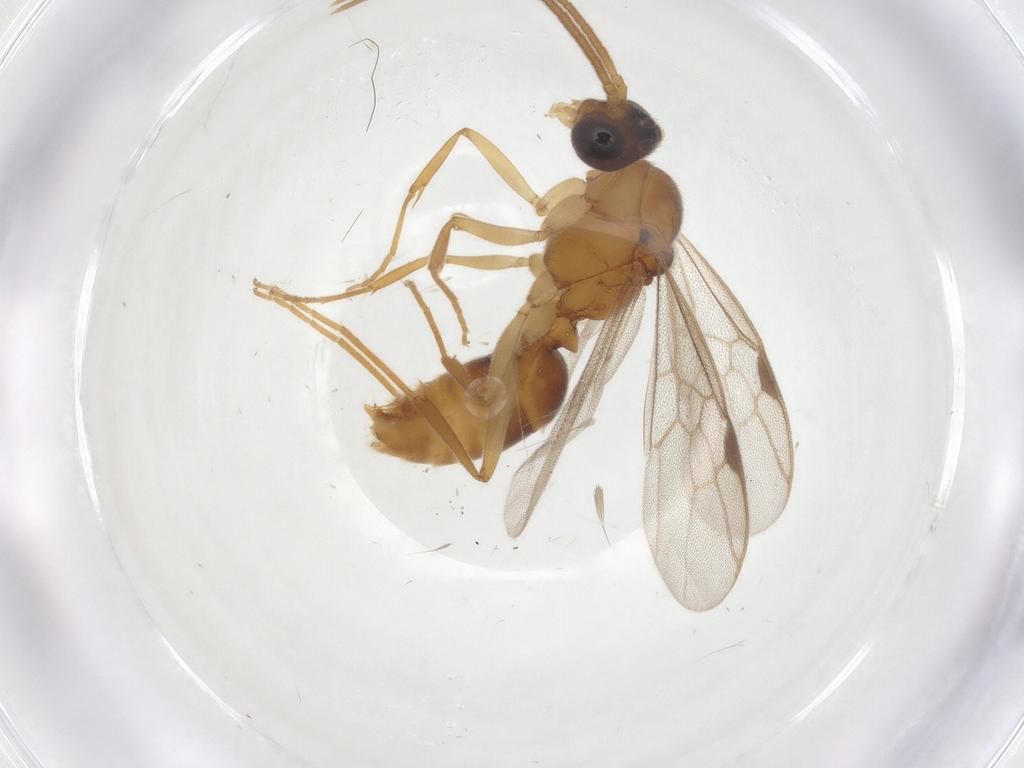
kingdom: Animalia
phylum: Arthropoda
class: Insecta
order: Hymenoptera
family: Formicidae
